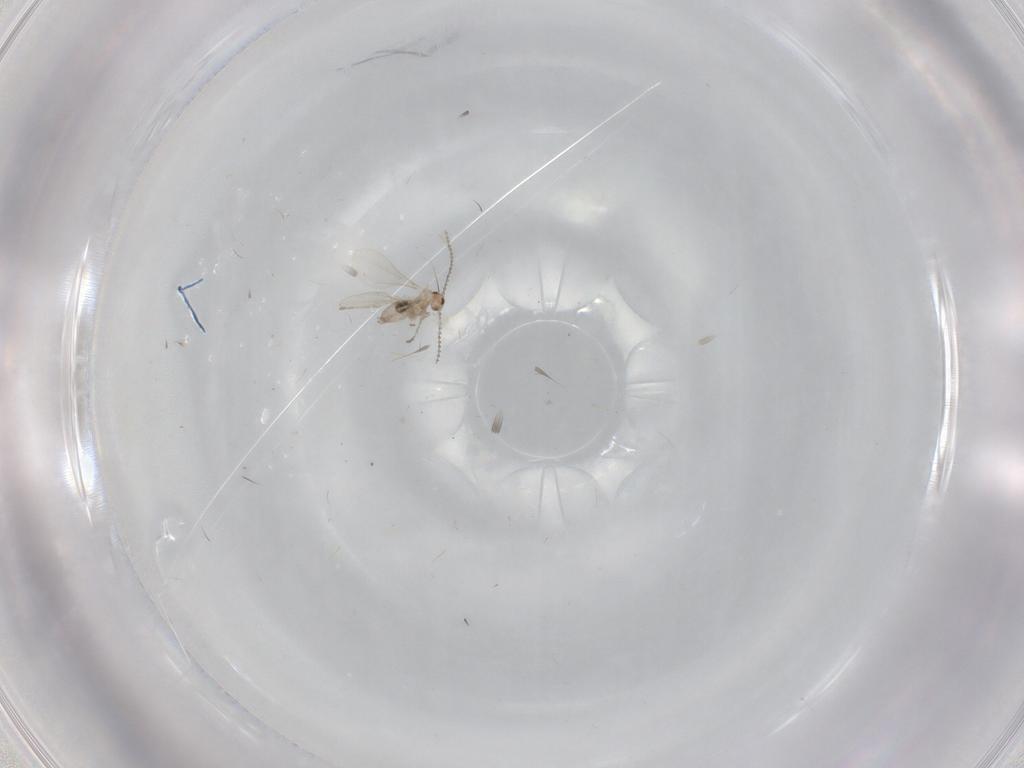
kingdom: Animalia
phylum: Arthropoda
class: Insecta
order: Diptera
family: Cecidomyiidae
